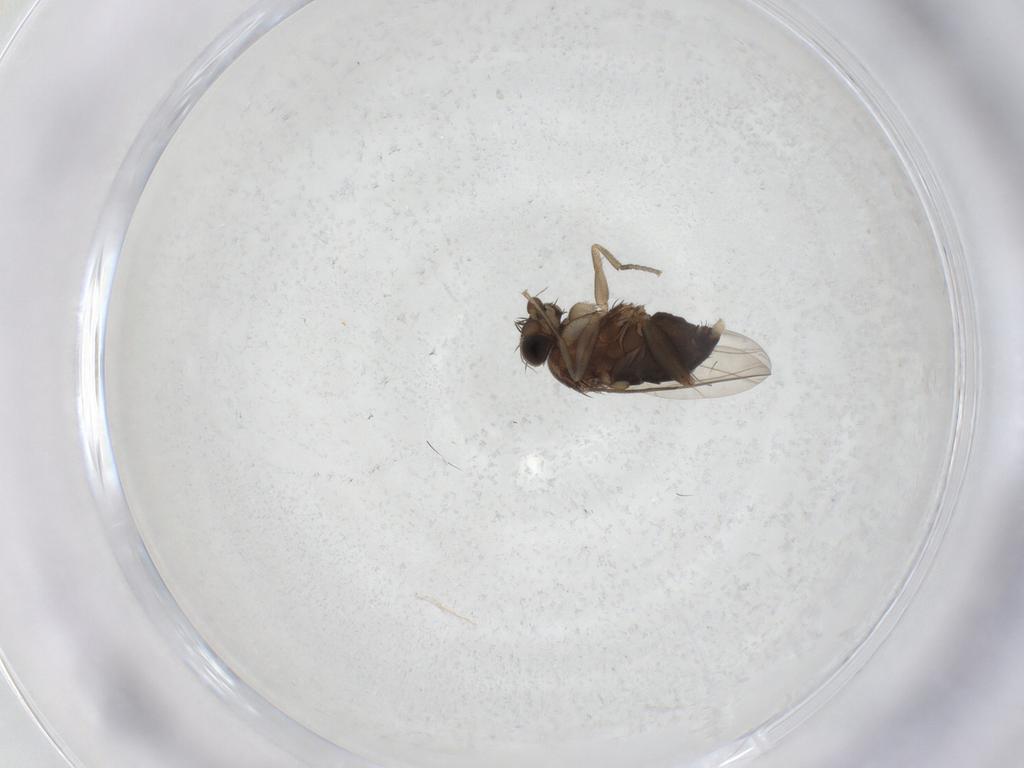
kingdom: Animalia
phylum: Arthropoda
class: Insecta
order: Diptera
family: Phoridae
